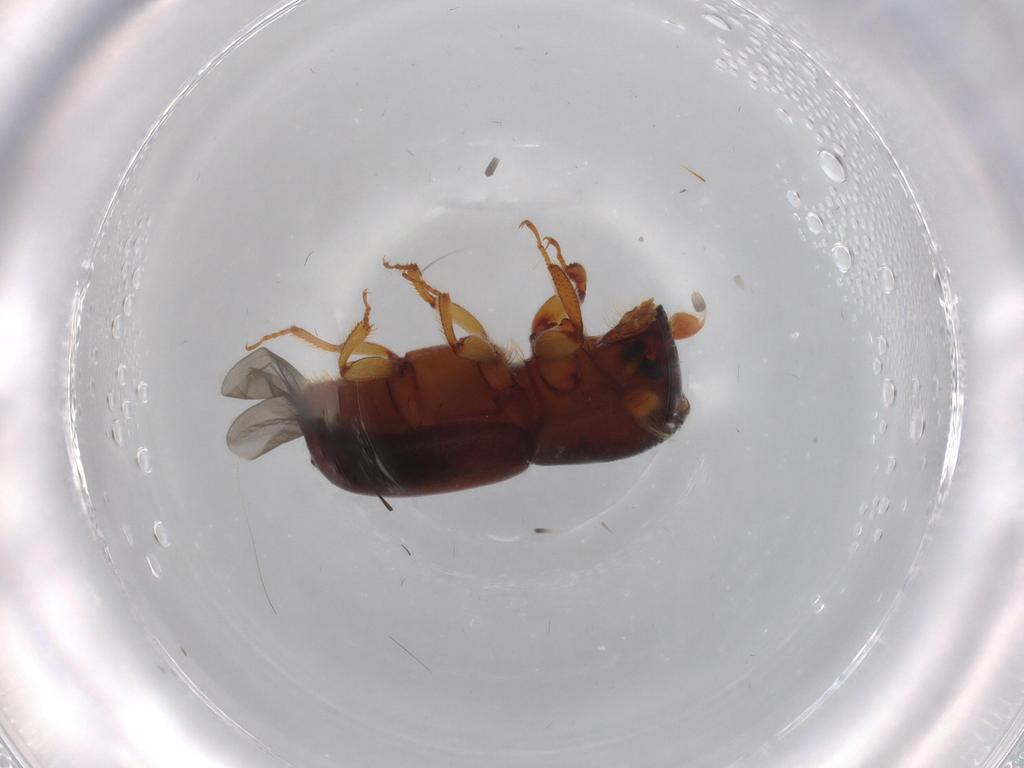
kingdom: Animalia
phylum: Arthropoda
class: Insecta
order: Coleoptera
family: Curculionidae
